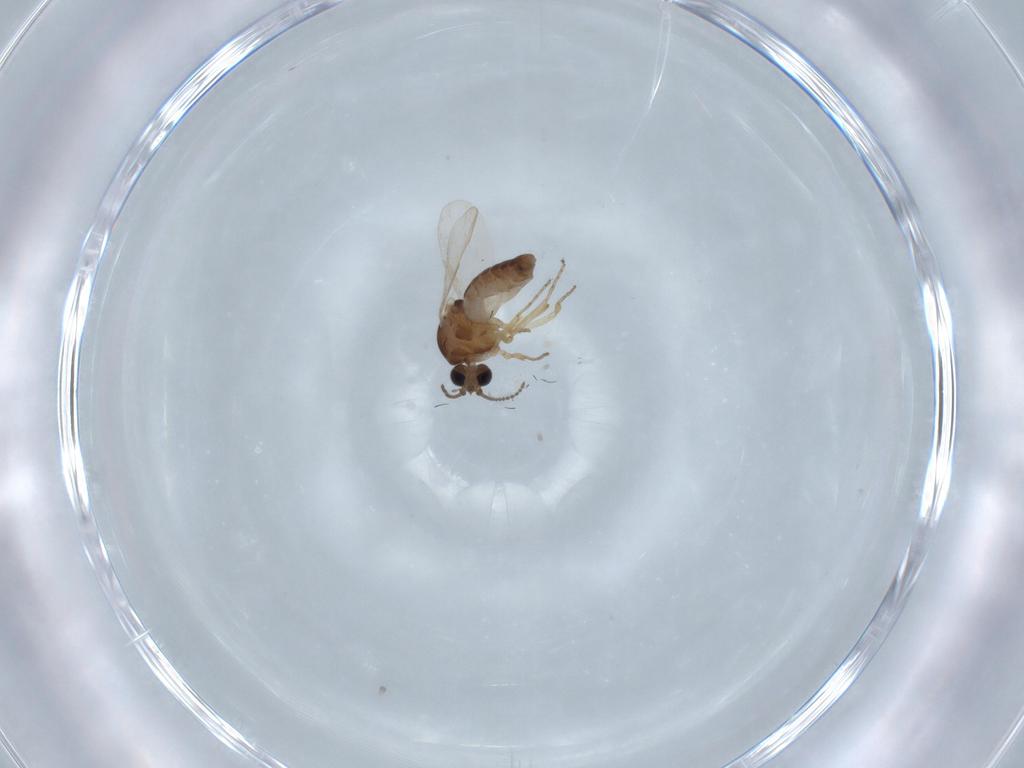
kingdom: Animalia
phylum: Arthropoda
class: Insecta
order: Diptera
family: Ceratopogonidae
